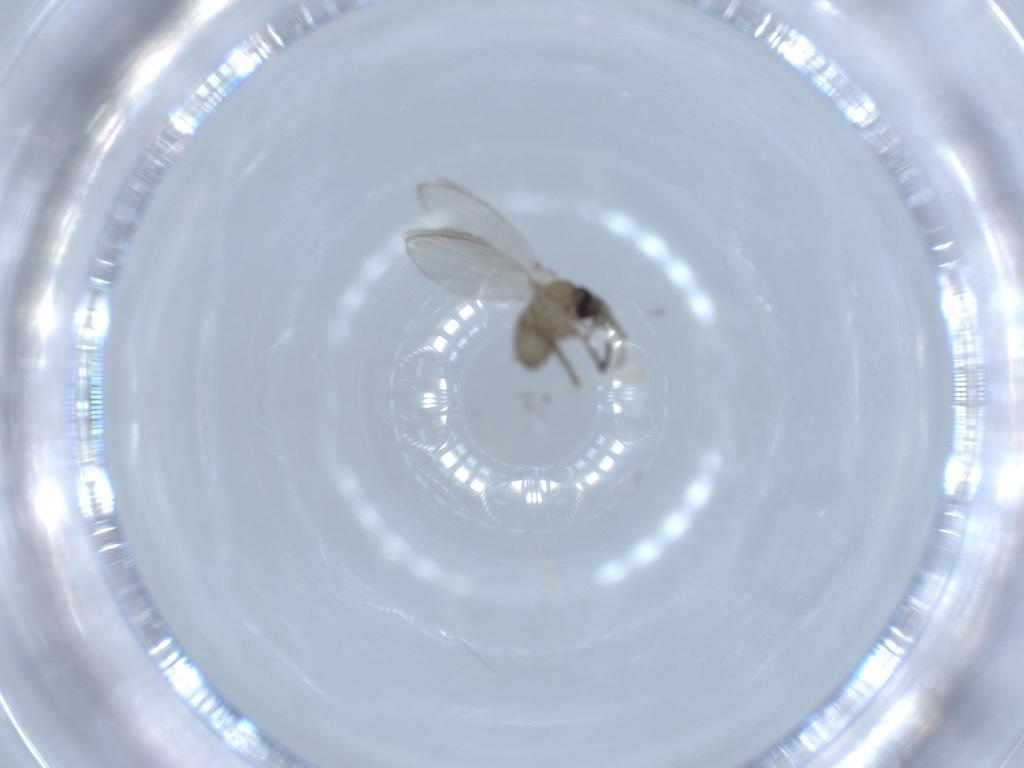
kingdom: Animalia
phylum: Arthropoda
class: Insecta
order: Diptera
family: Psychodidae
